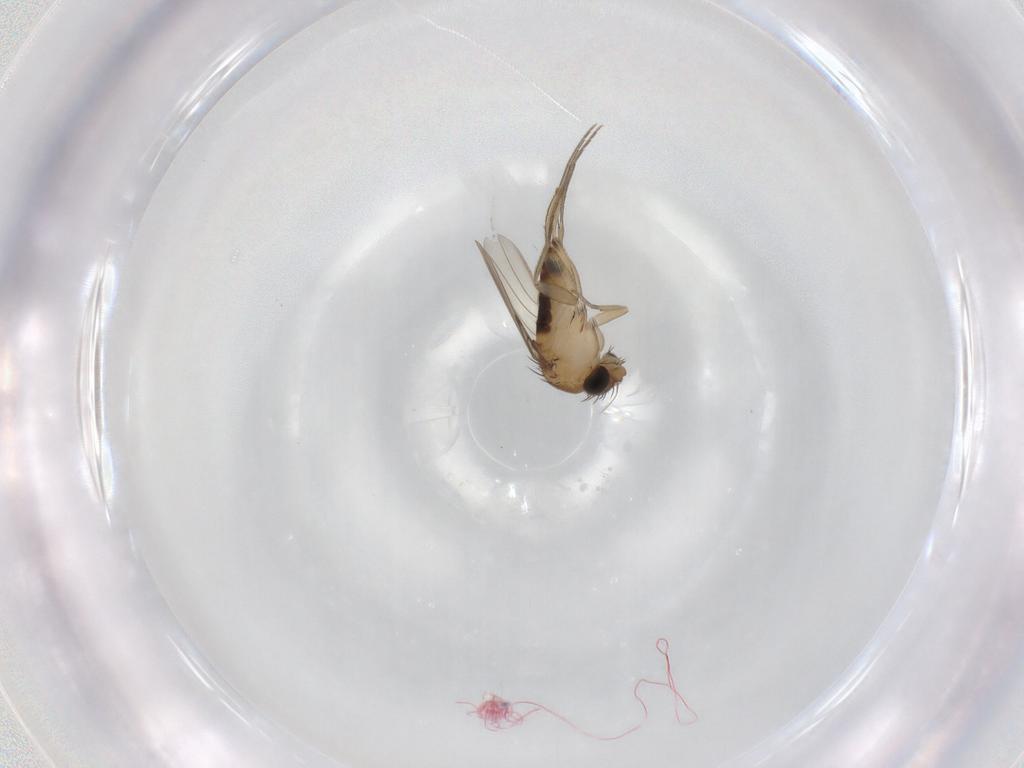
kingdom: Animalia
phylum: Arthropoda
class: Insecta
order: Diptera
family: Phoridae
